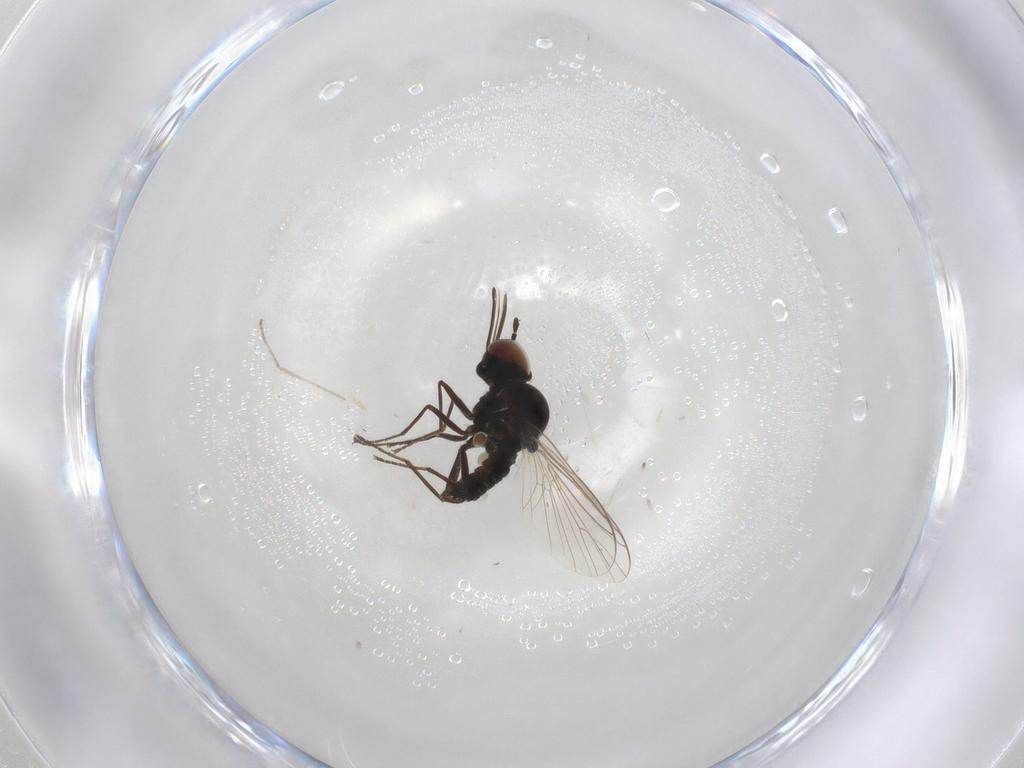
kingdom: Animalia
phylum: Arthropoda
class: Insecta
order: Diptera
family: Bombyliidae
